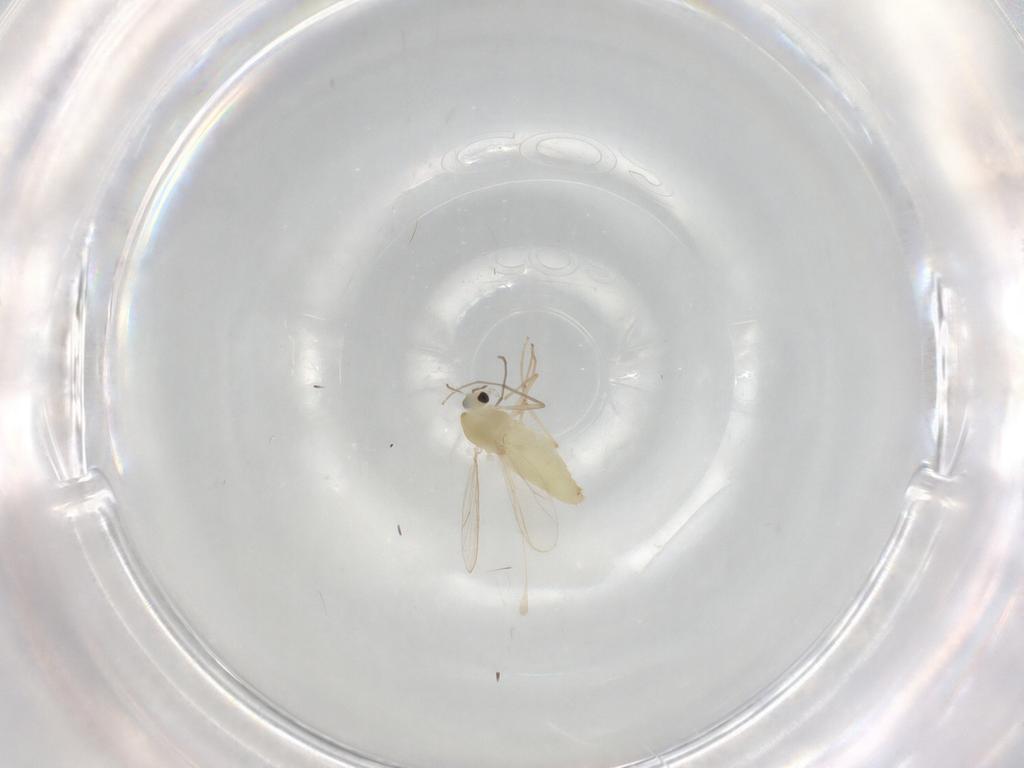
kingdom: Animalia
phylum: Arthropoda
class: Insecta
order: Diptera
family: Chironomidae
